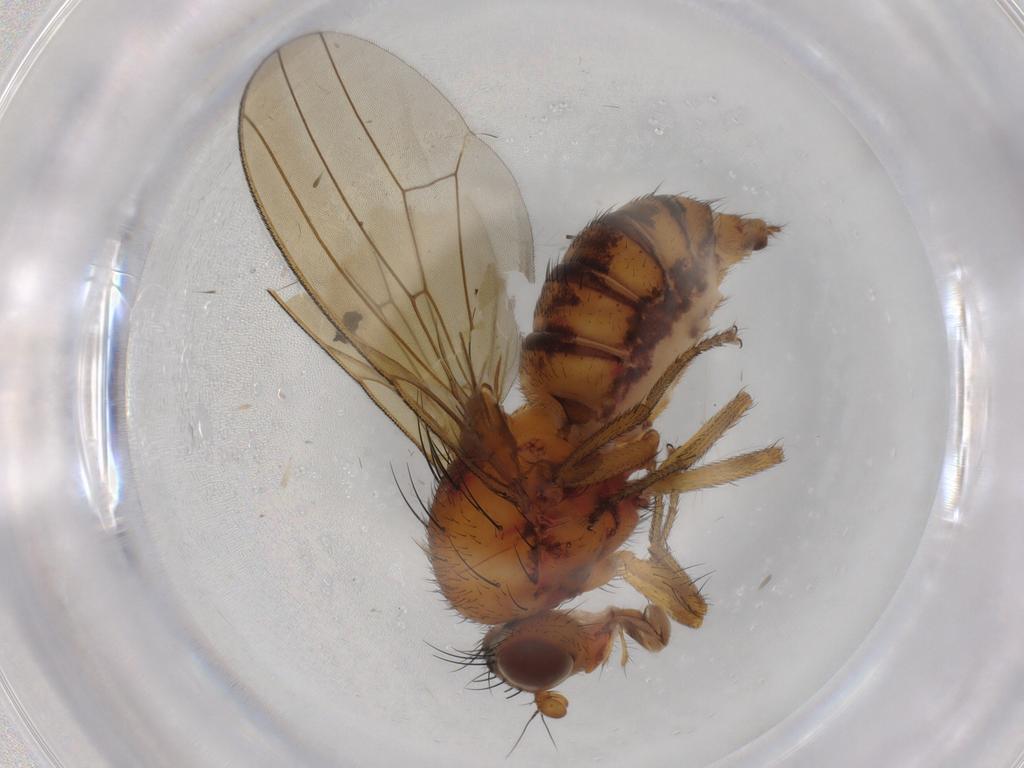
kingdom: Animalia
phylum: Arthropoda
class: Insecta
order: Diptera
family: Lauxaniidae
